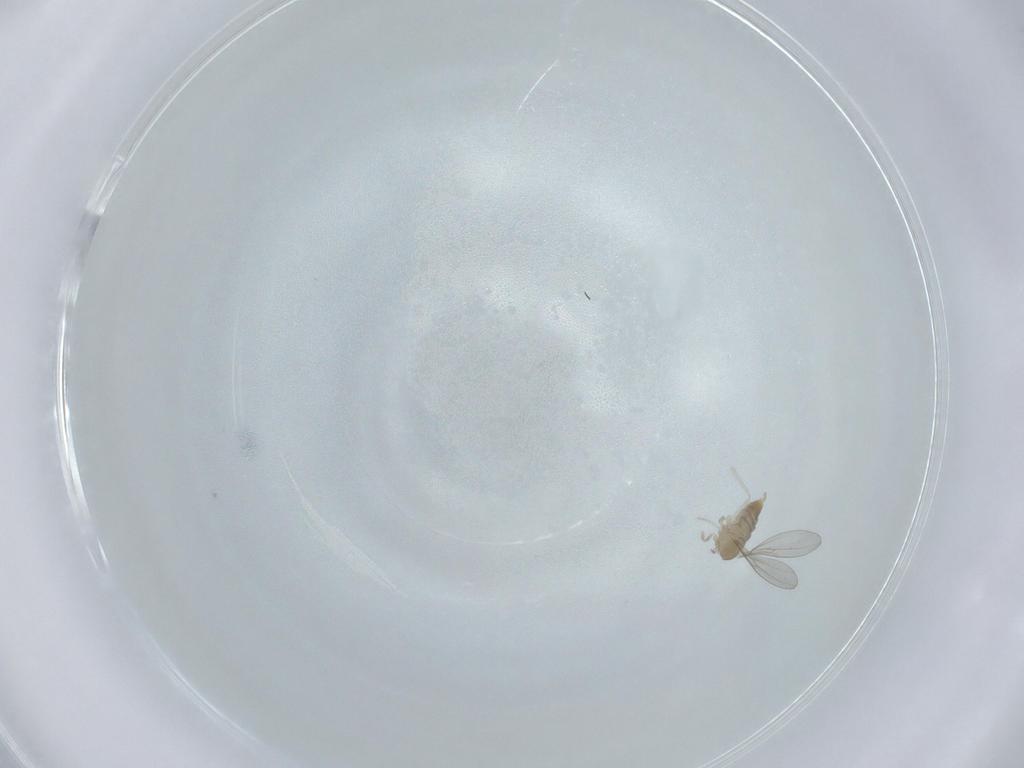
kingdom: Animalia
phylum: Arthropoda
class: Insecta
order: Diptera
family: Cecidomyiidae
